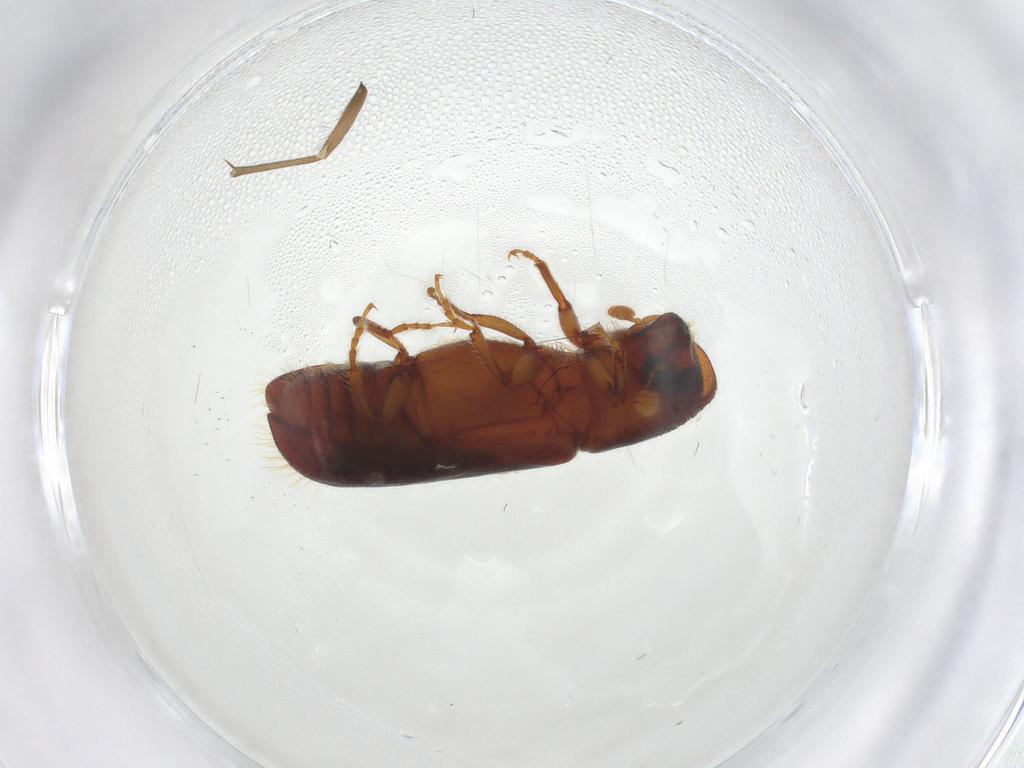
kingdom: Animalia
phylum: Arthropoda
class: Insecta
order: Coleoptera
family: Curculionidae
